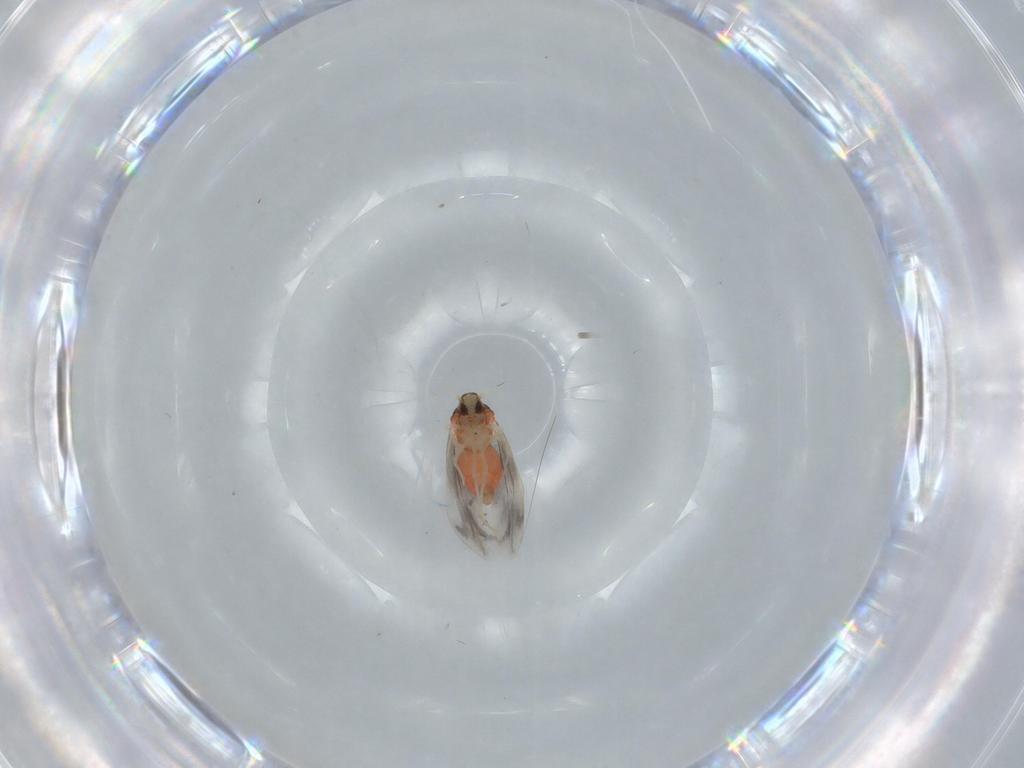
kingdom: Animalia
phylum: Arthropoda
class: Insecta
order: Hemiptera
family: Aleyrodidae
